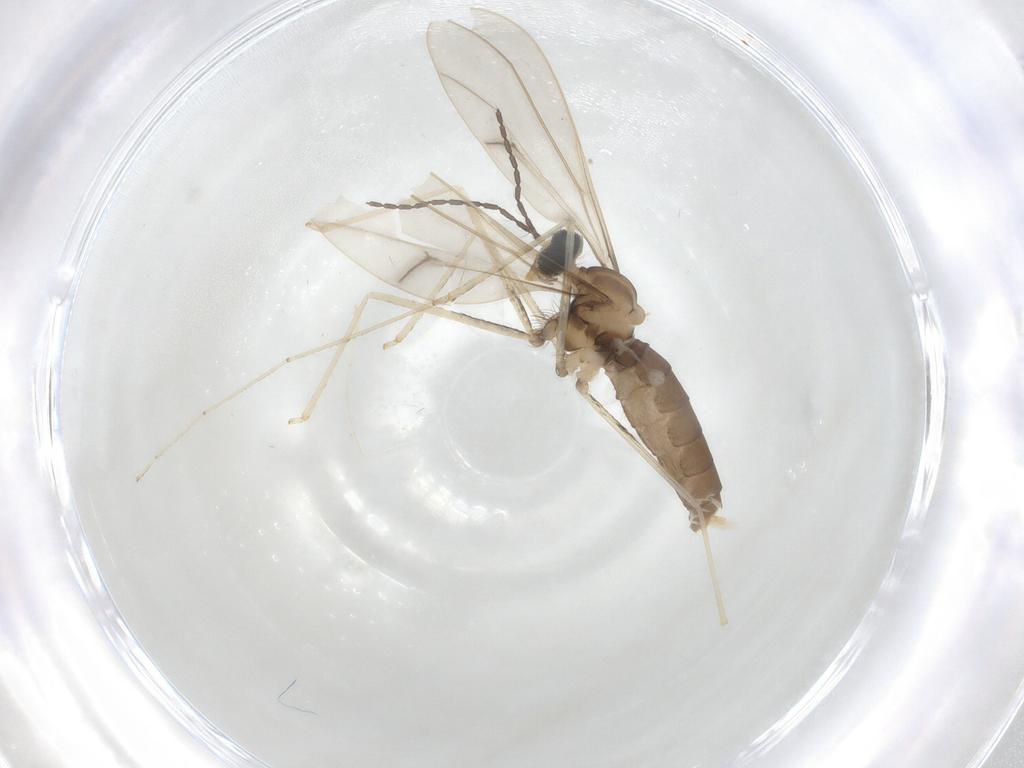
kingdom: Animalia
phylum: Arthropoda
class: Insecta
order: Diptera
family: Cecidomyiidae
